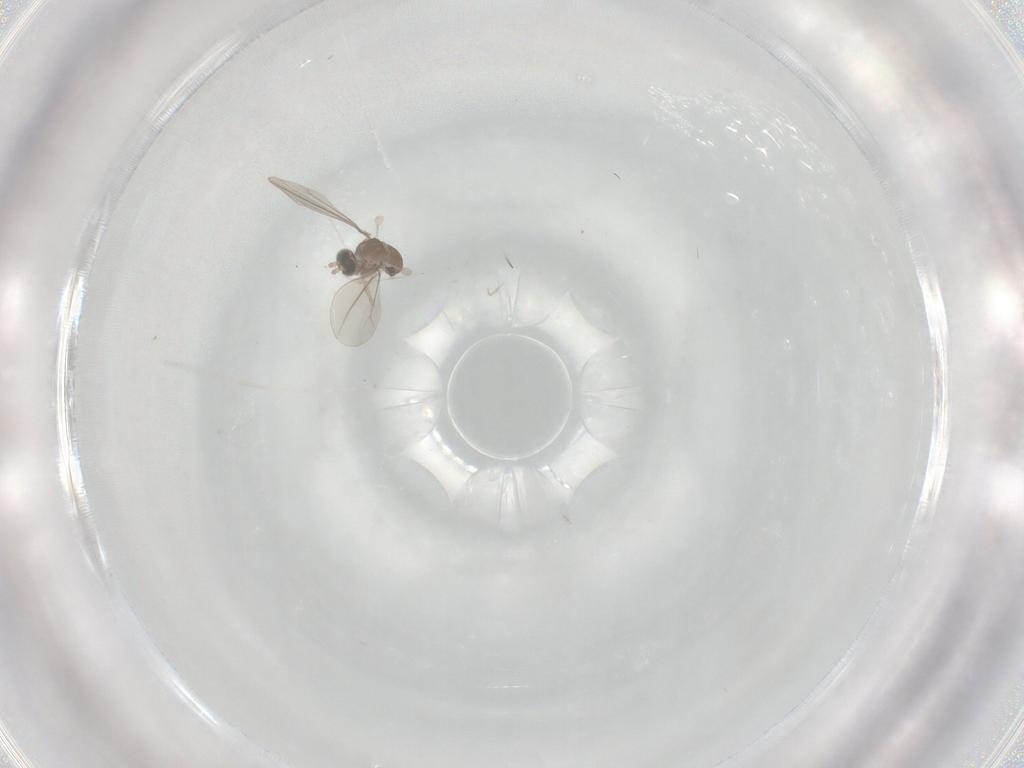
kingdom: Animalia
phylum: Arthropoda
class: Insecta
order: Diptera
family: Cecidomyiidae
